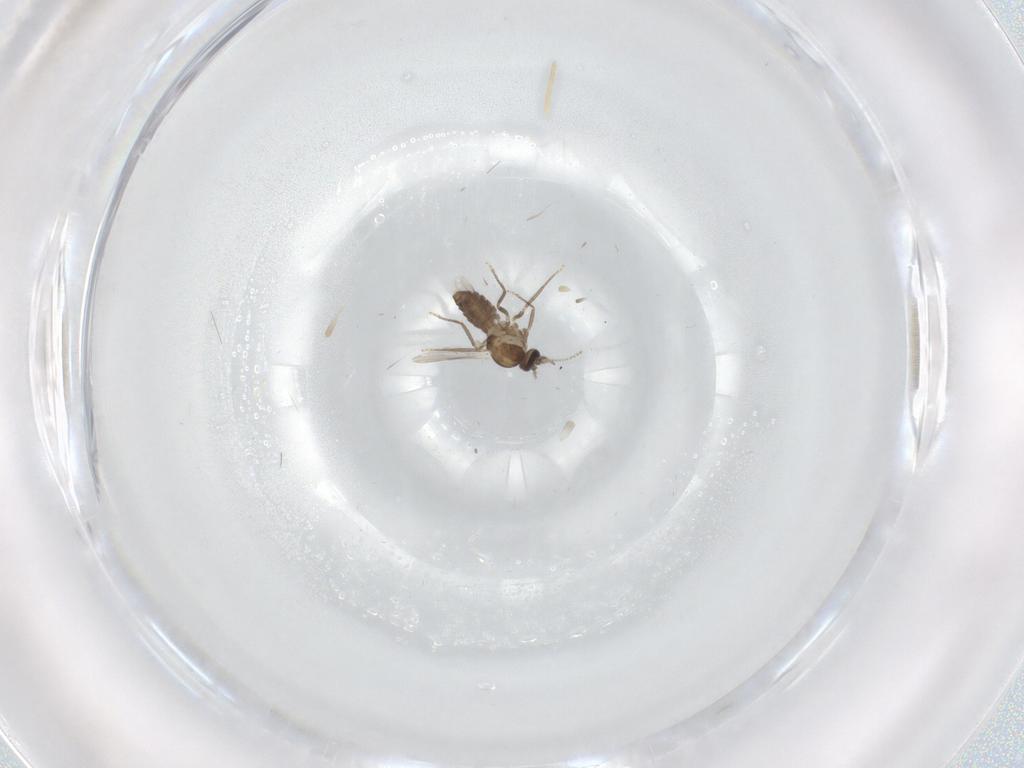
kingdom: Animalia
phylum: Arthropoda
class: Insecta
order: Diptera
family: Ceratopogonidae
